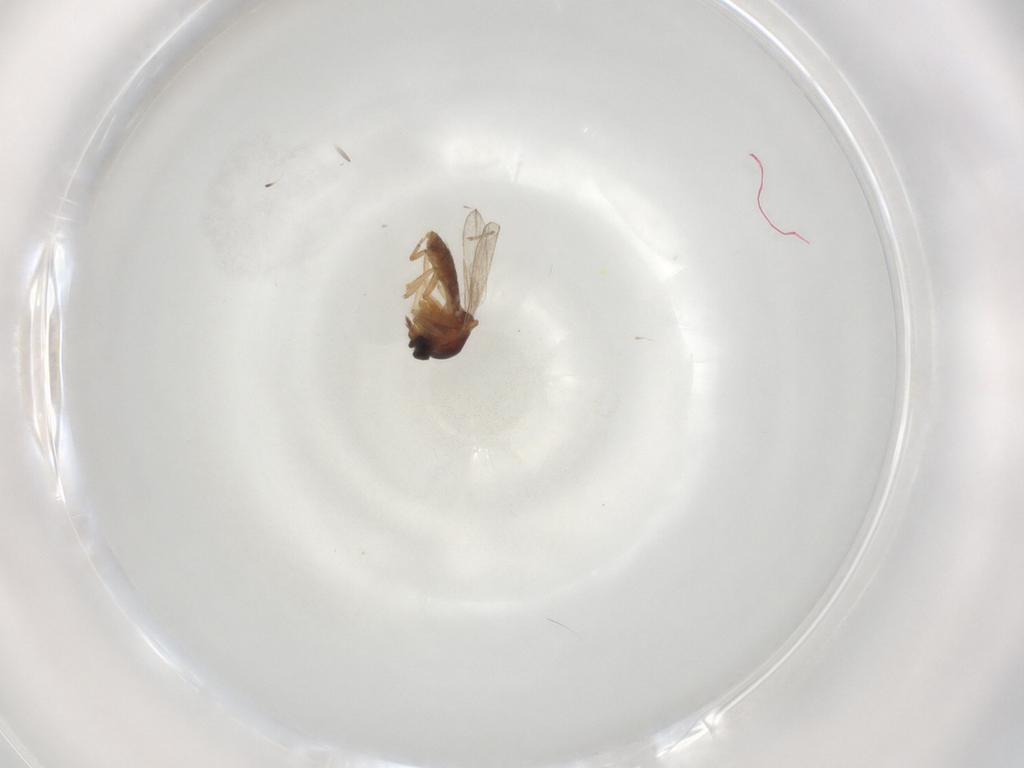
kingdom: Animalia
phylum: Arthropoda
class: Insecta
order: Diptera
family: Ceratopogonidae
